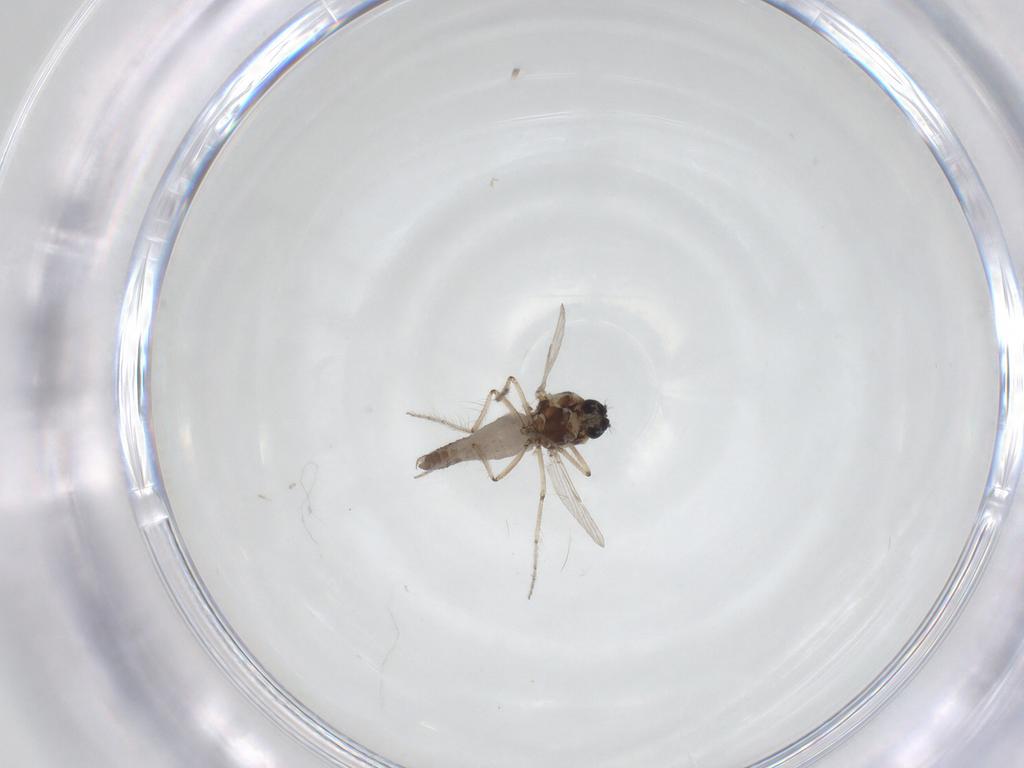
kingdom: Animalia
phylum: Arthropoda
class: Insecta
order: Diptera
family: Ceratopogonidae
